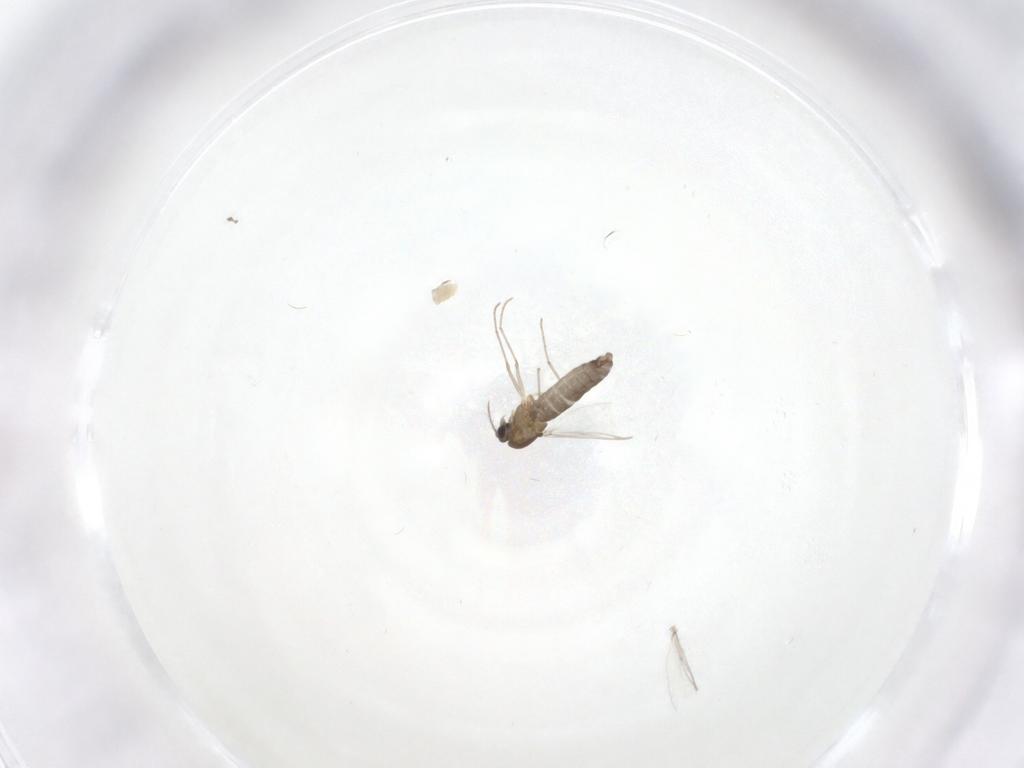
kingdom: Animalia
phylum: Arthropoda
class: Insecta
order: Diptera
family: Chironomidae
